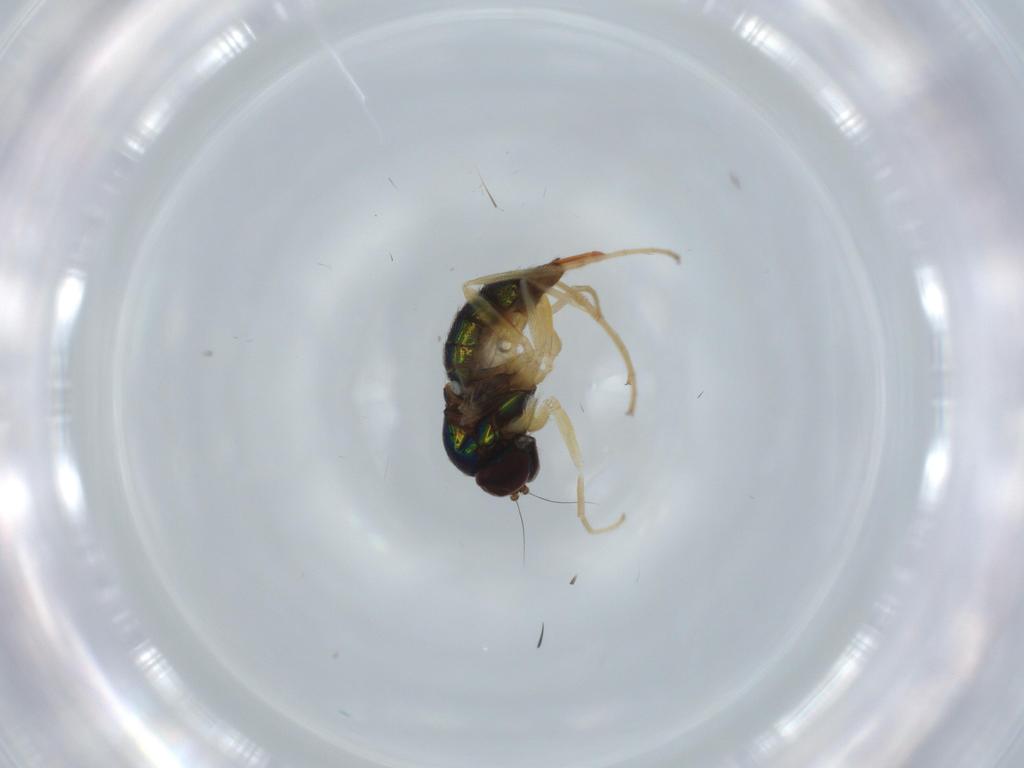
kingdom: Animalia
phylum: Arthropoda
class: Insecta
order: Diptera
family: Dolichopodidae
